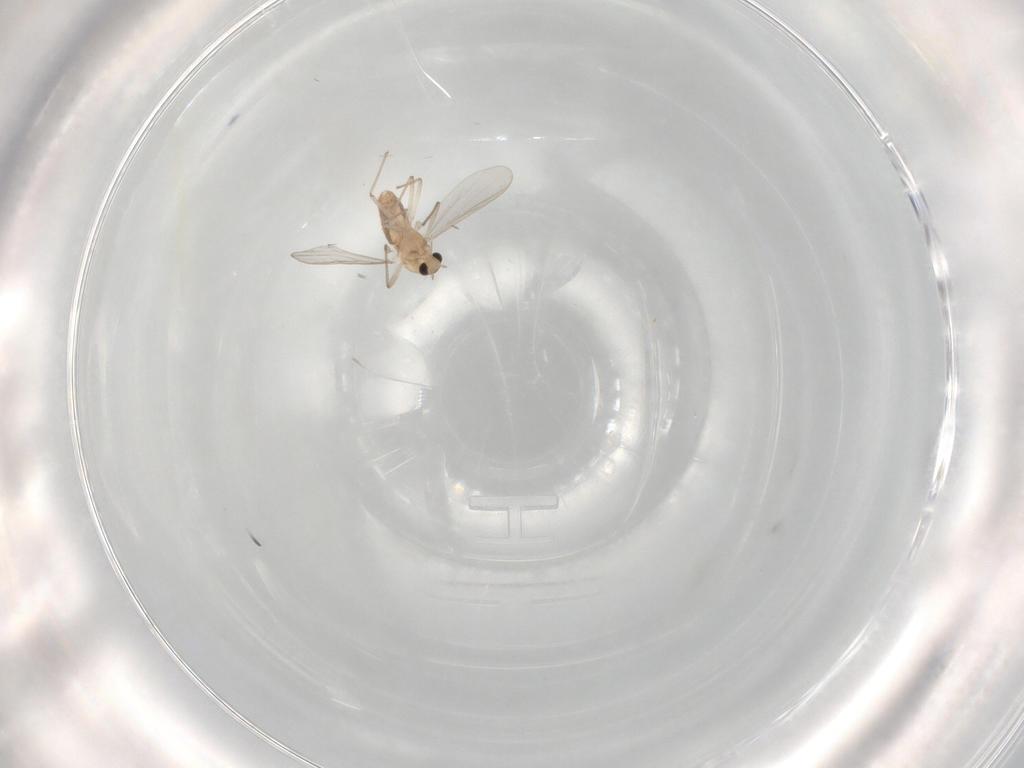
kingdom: Animalia
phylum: Arthropoda
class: Insecta
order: Diptera
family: Chironomidae
